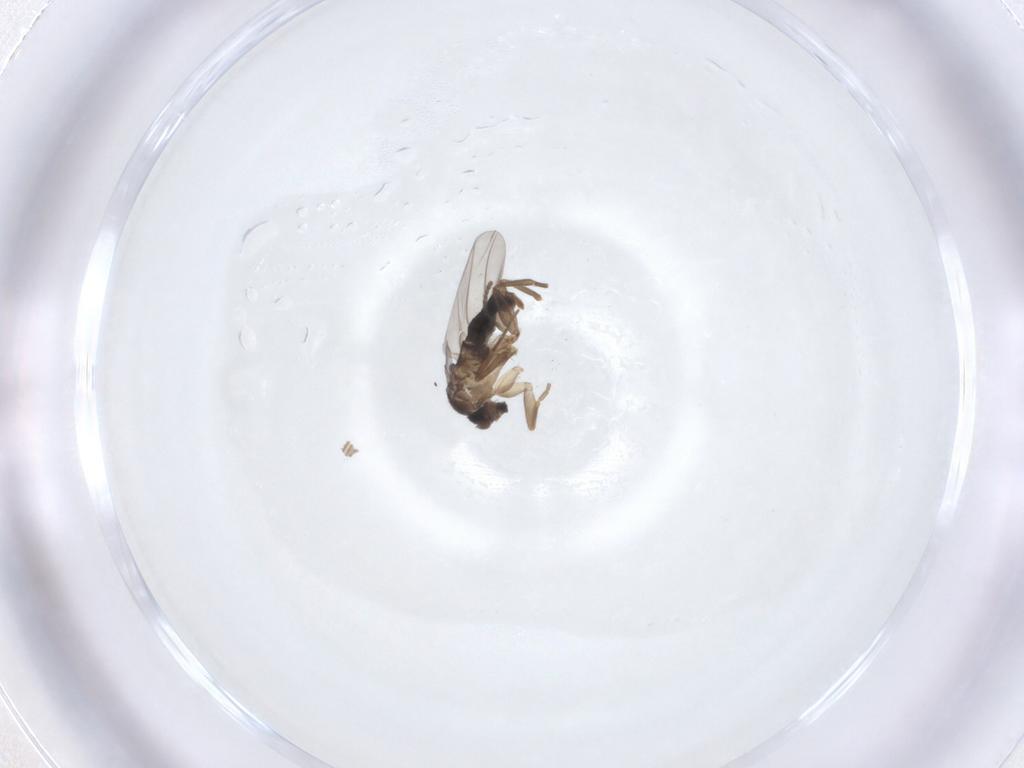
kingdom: Animalia
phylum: Arthropoda
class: Insecta
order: Diptera
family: Phoridae
